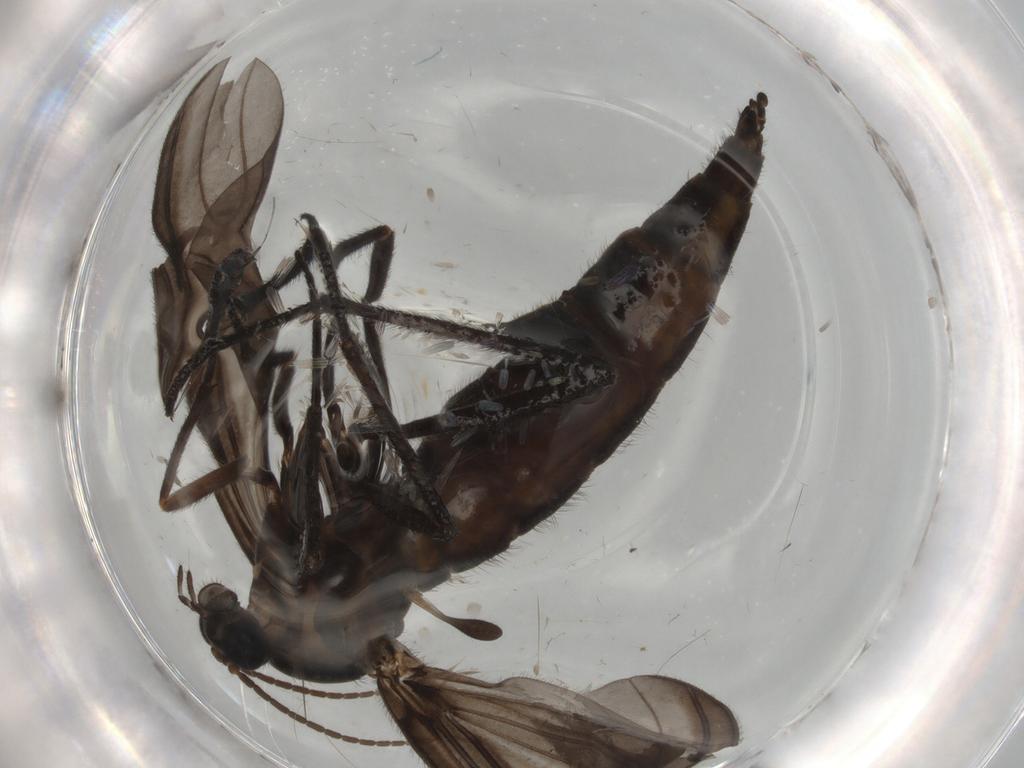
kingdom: Animalia
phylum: Arthropoda
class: Insecta
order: Diptera
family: Sciaridae
